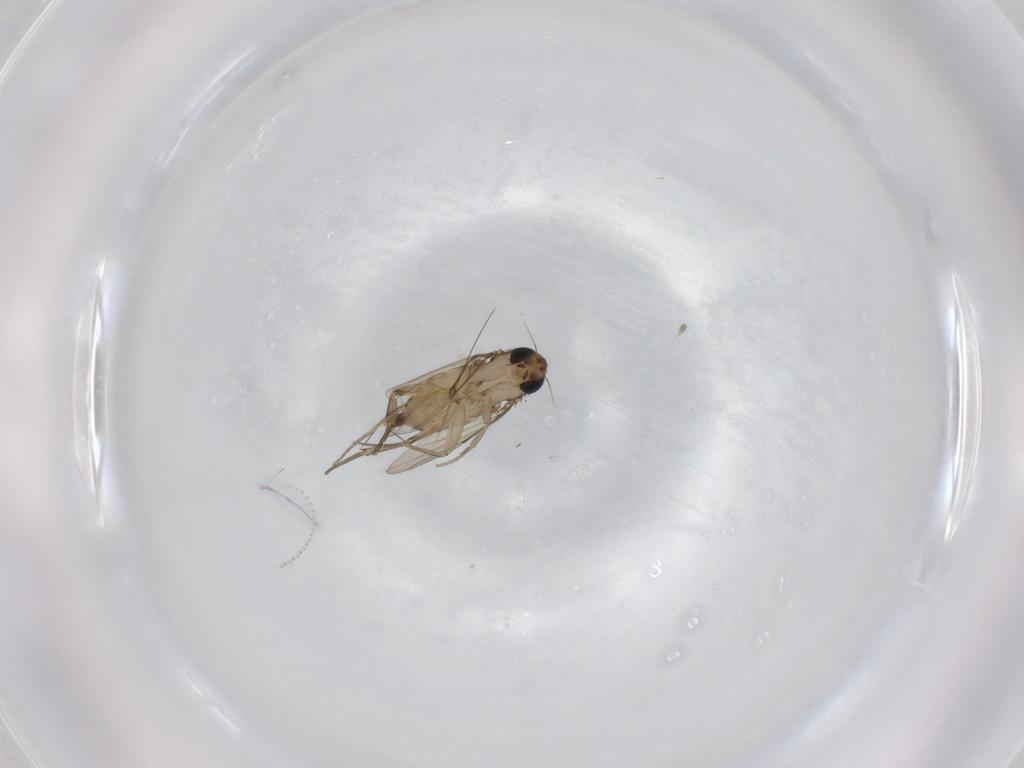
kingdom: Animalia
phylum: Arthropoda
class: Insecta
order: Diptera
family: Phoridae
